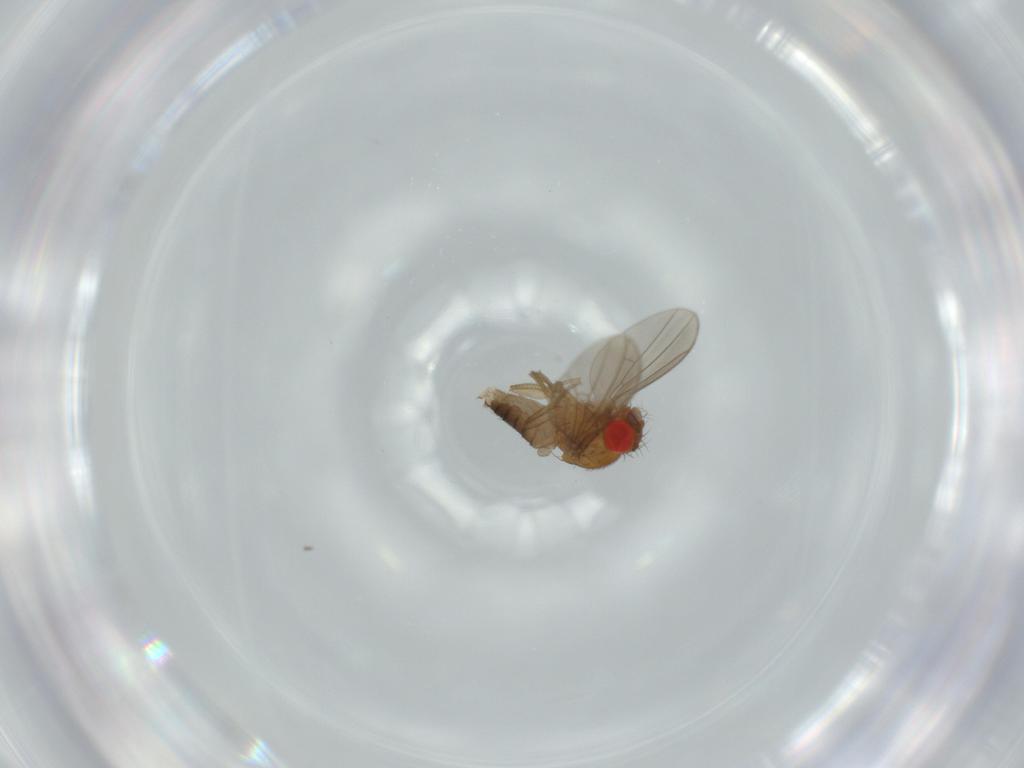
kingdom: Animalia
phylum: Arthropoda
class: Insecta
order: Diptera
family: Drosophilidae
